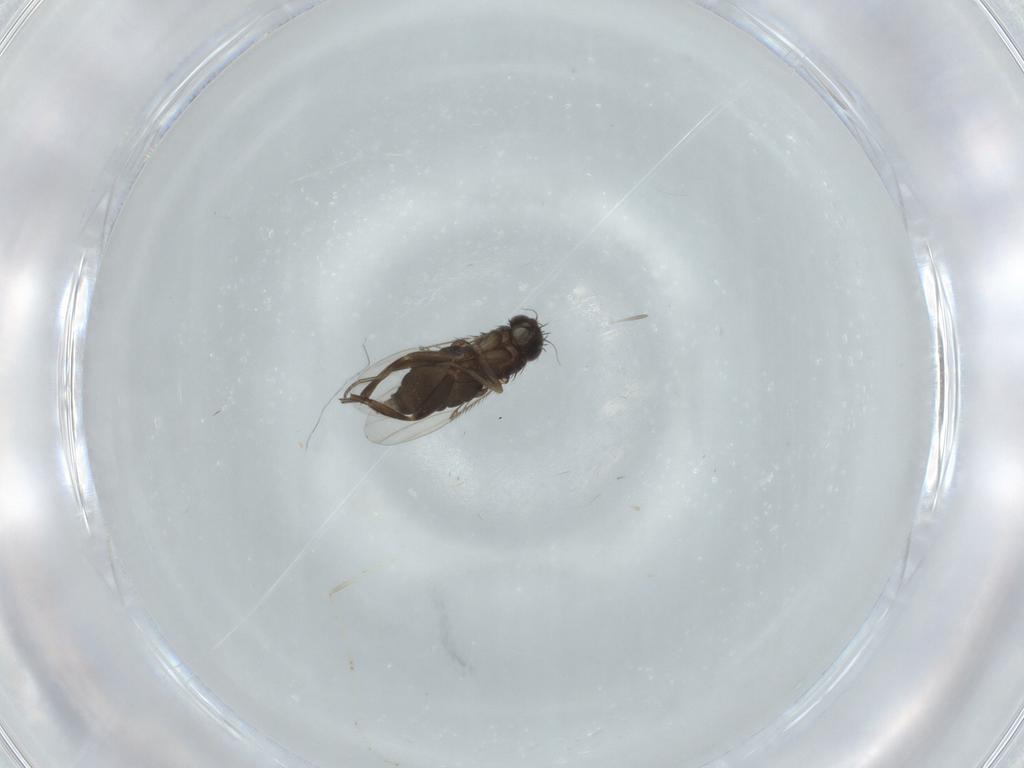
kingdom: Animalia
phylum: Arthropoda
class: Insecta
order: Diptera
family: Phoridae
